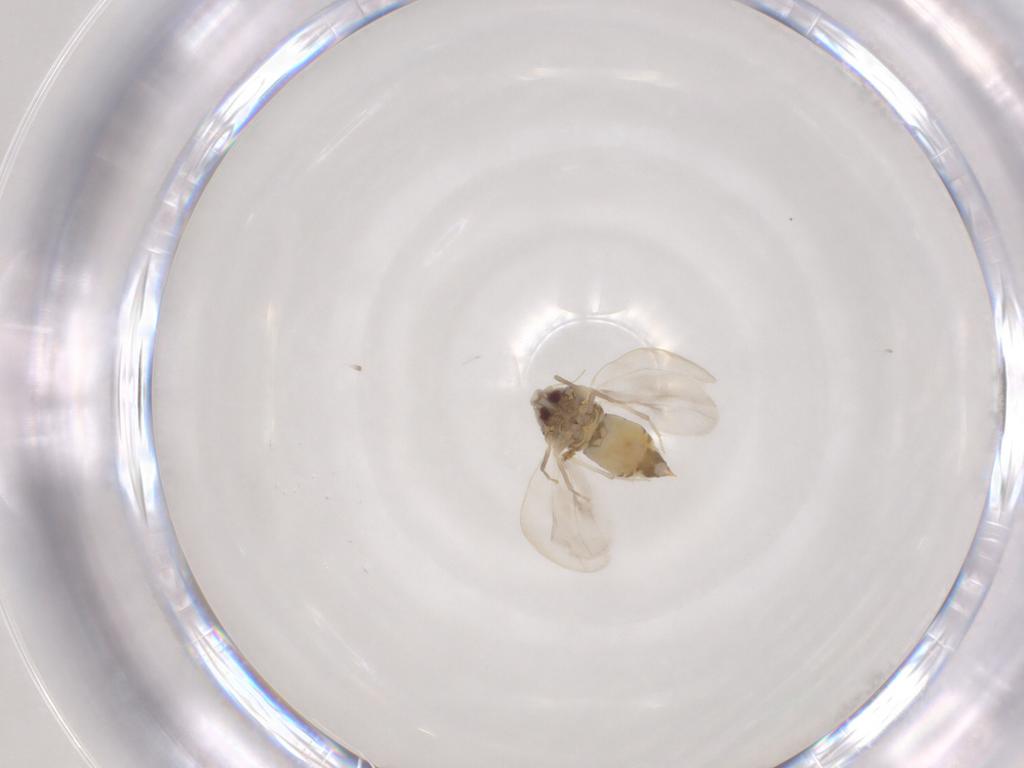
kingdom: Animalia
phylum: Arthropoda
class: Insecta
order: Hemiptera
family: Aleyrodidae
